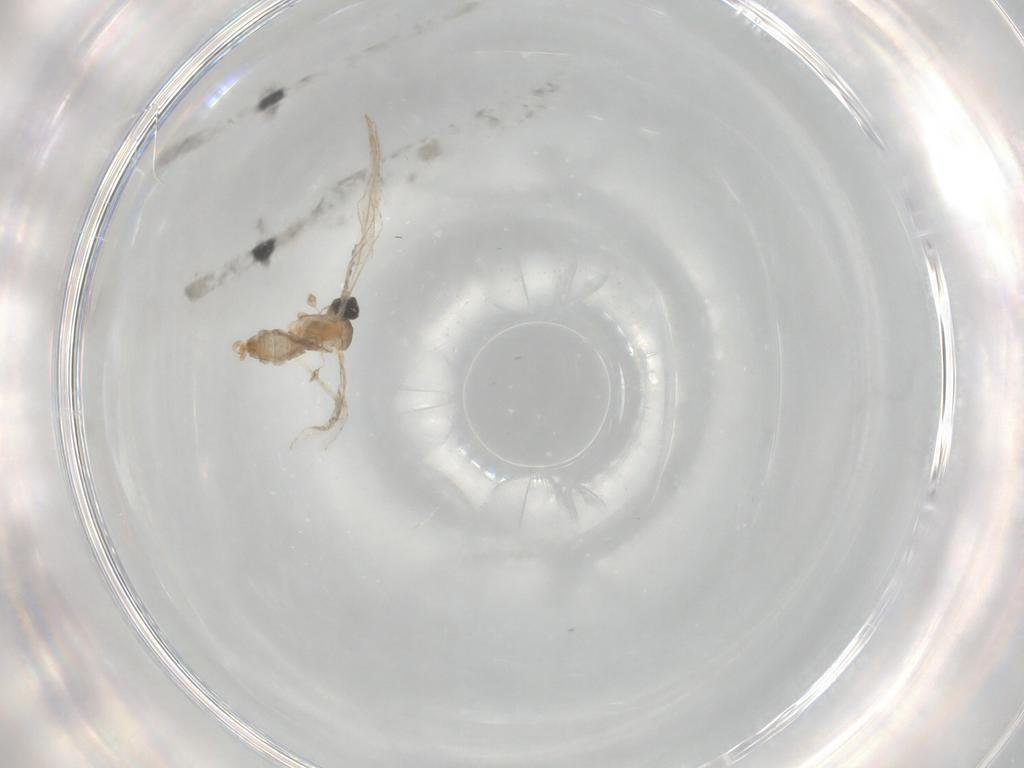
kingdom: Animalia
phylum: Arthropoda
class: Insecta
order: Diptera
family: Cecidomyiidae
